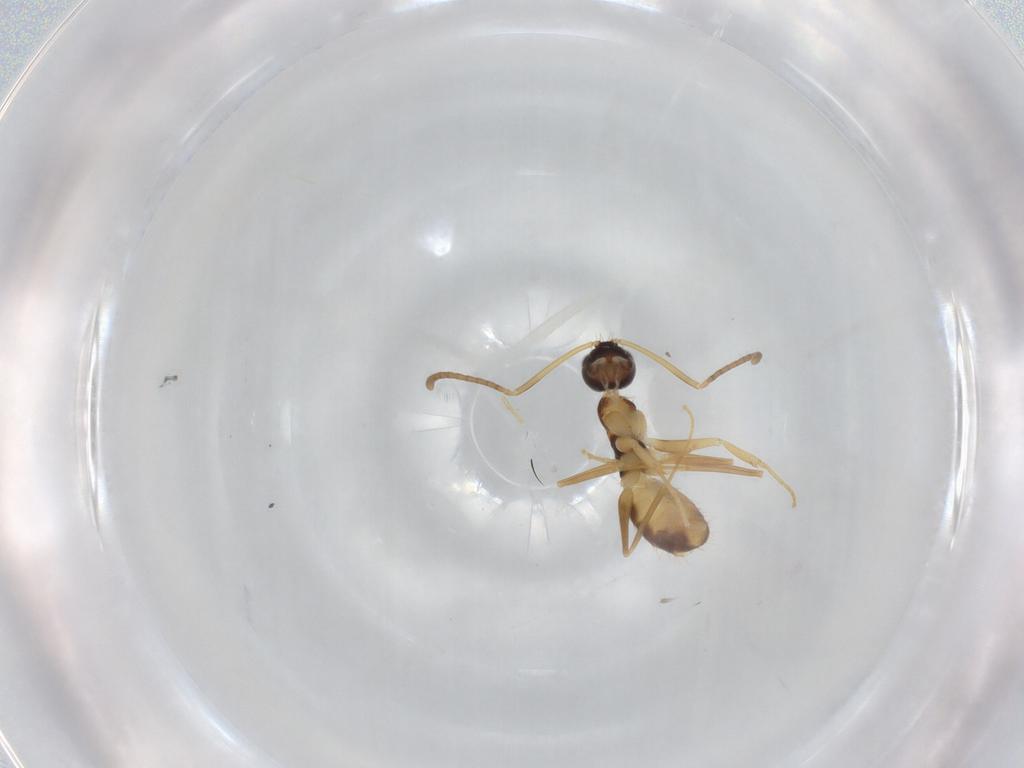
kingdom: Animalia
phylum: Arthropoda
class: Insecta
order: Hymenoptera
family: Formicidae
